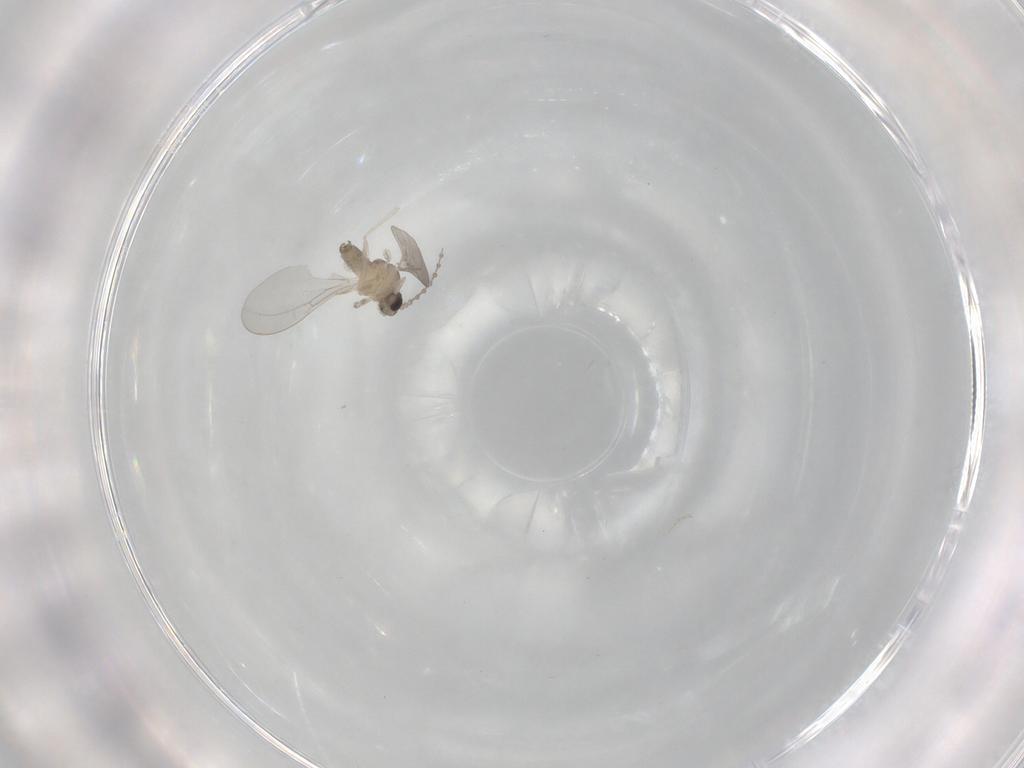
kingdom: Animalia
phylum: Arthropoda
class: Insecta
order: Diptera
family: Cecidomyiidae
